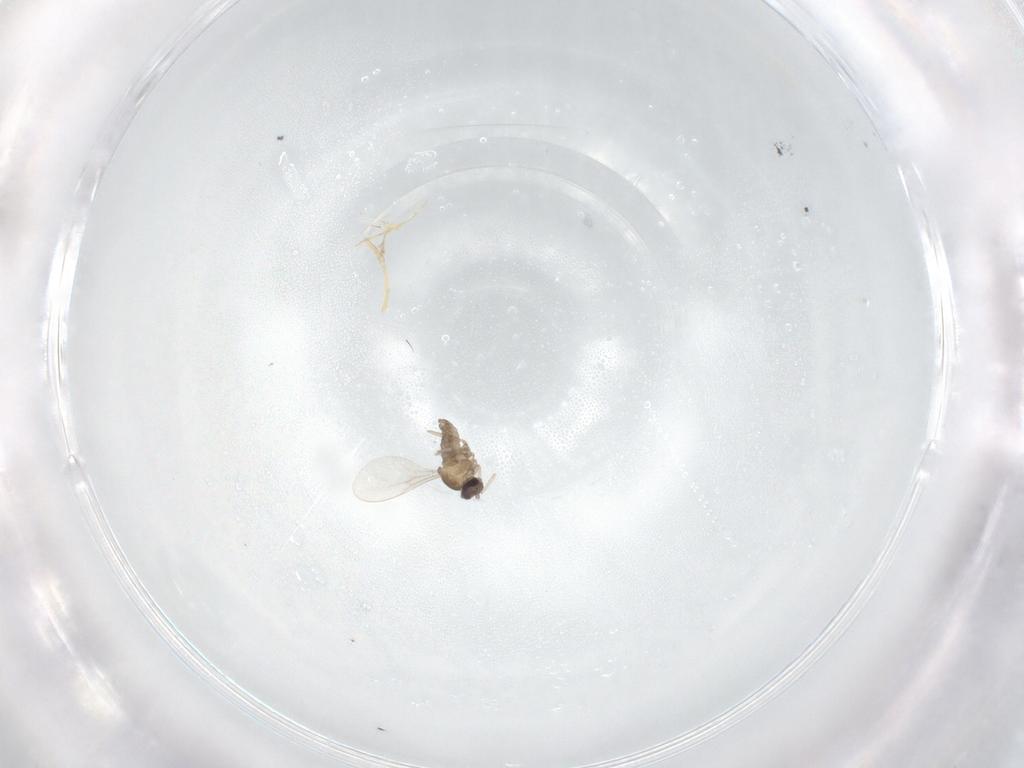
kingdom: Animalia
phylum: Arthropoda
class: Insecta
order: Diptera
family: Cecidomyiidae
